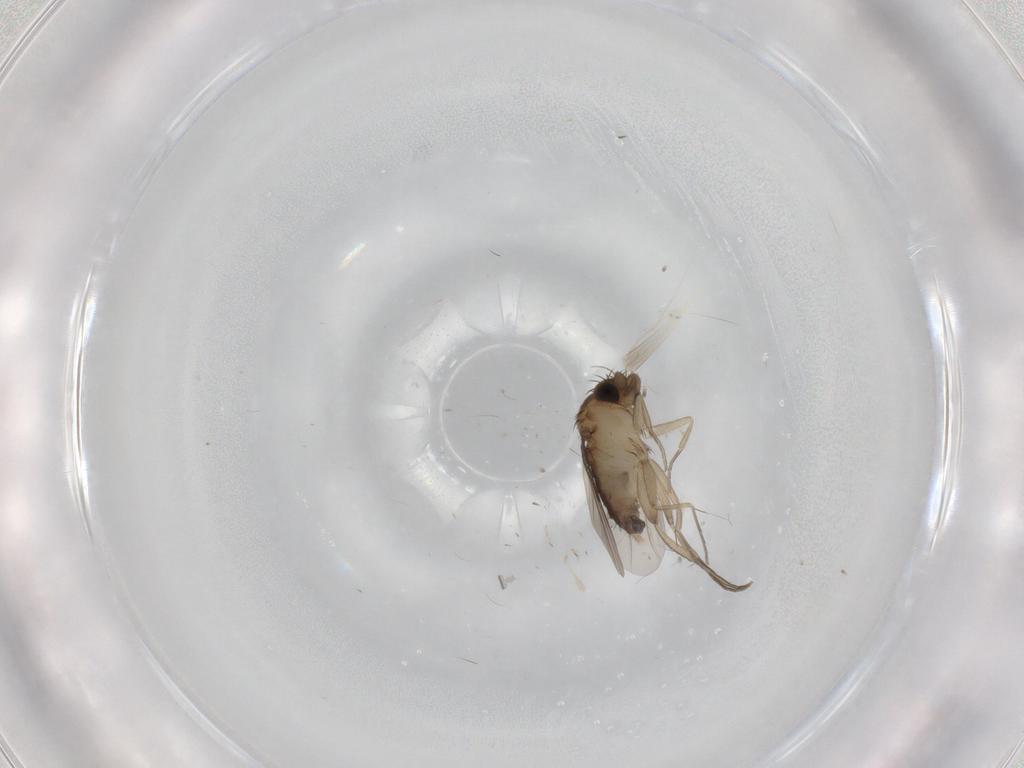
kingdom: Animalia
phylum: Arthropoda
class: Insecta
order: Diptera
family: Phoridae
